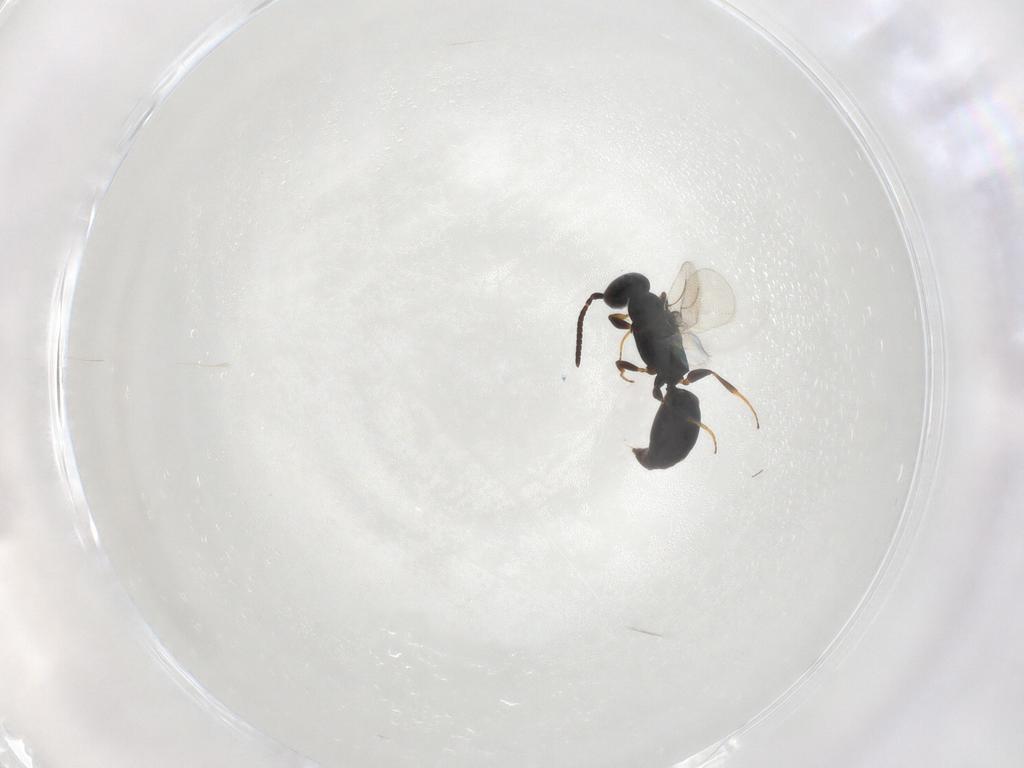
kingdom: Animalia
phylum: Arthropoda
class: Insecta
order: Hymenoptera
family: Bethylidae
